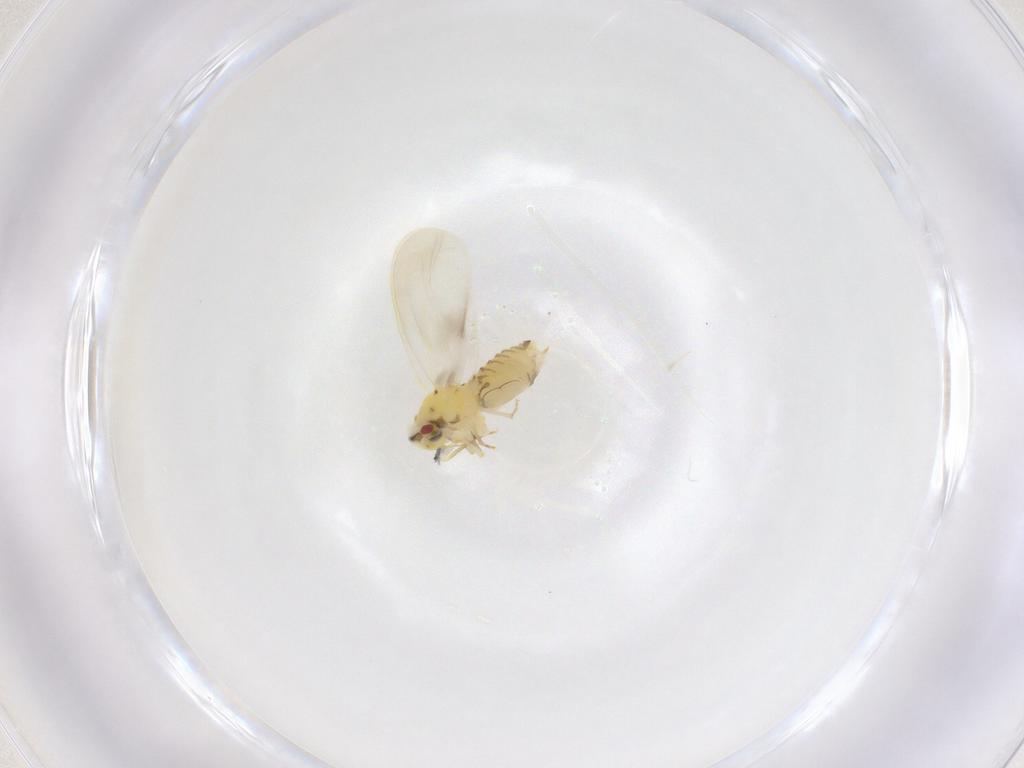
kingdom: Animalia
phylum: Arthropoda
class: Insecta
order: Hemiptera
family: Aleyrodidae
